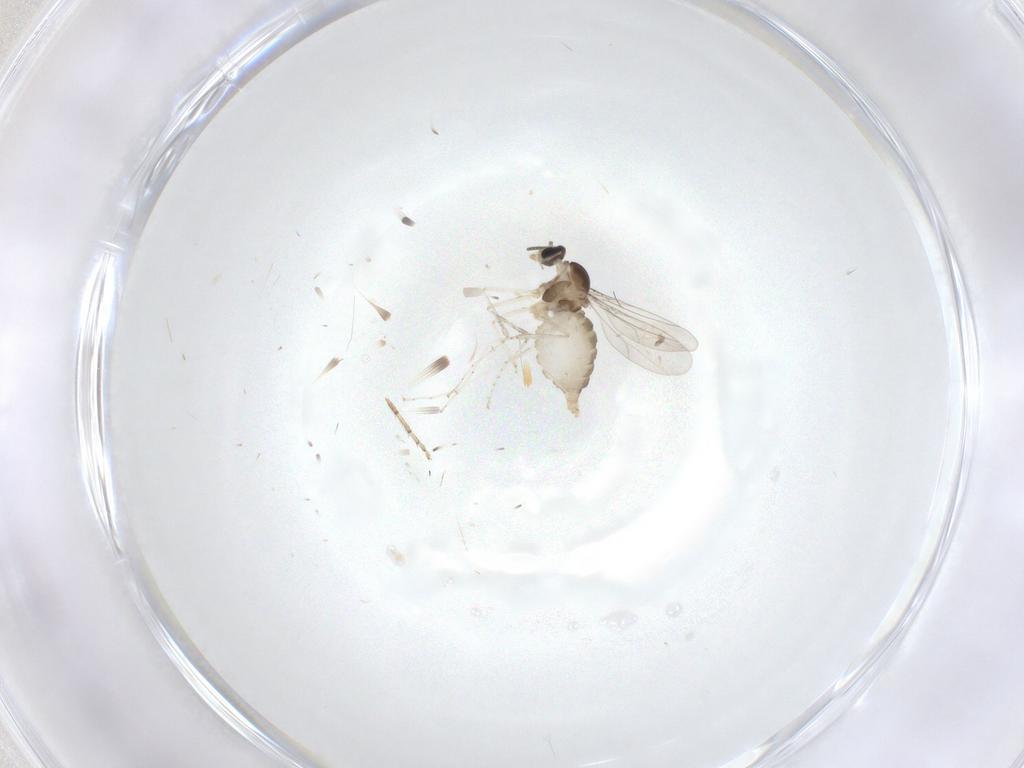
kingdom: Animalia
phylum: Arthropoda
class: Insecta
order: Diptera
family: Cecidomyiidae
